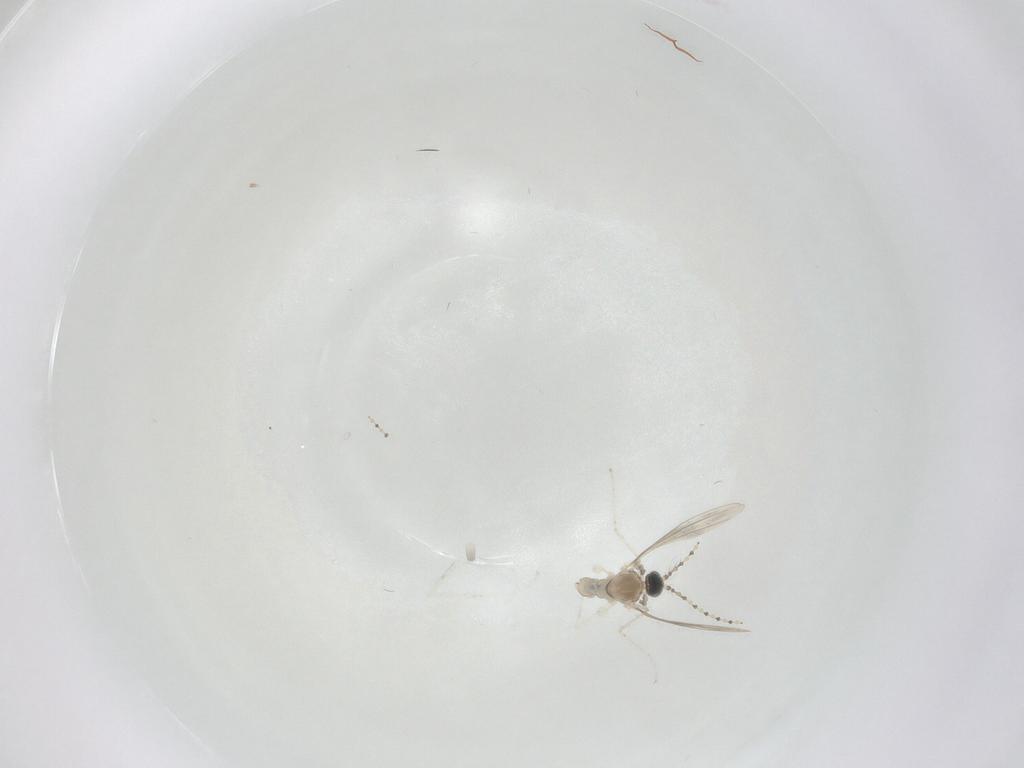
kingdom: Animalia
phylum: Arthropoda
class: Insecta
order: Diptera
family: Cecidomyiidae
